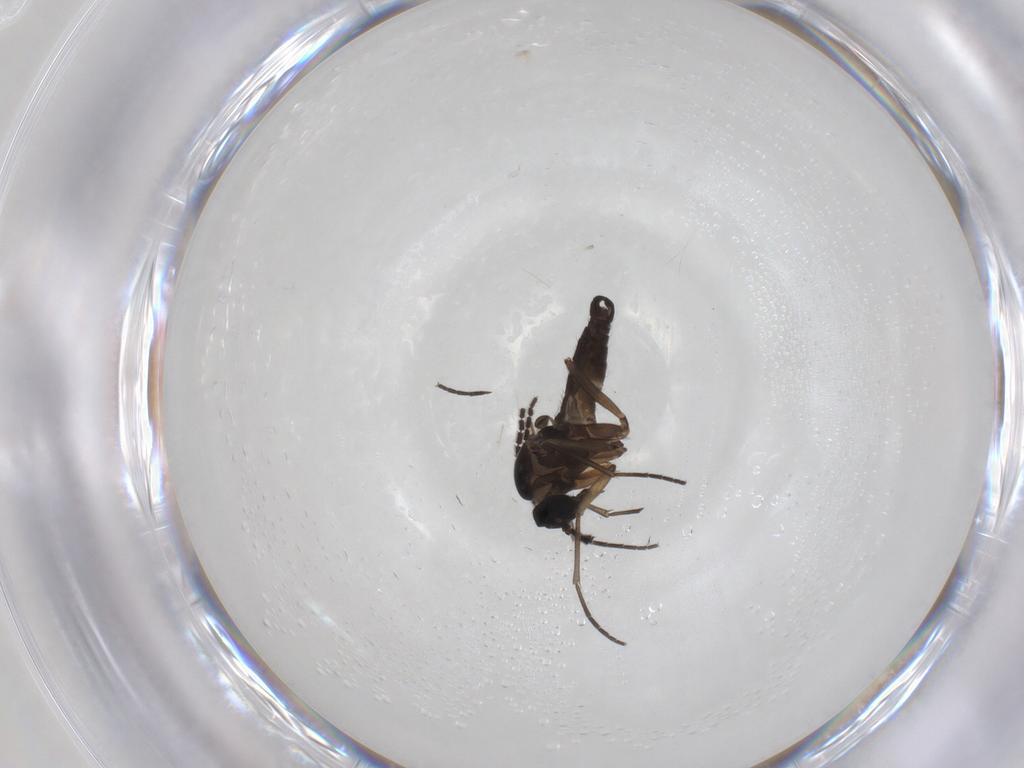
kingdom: Animalia
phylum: Arthropoda
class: Insecta
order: Diptera
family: Sciaridae
